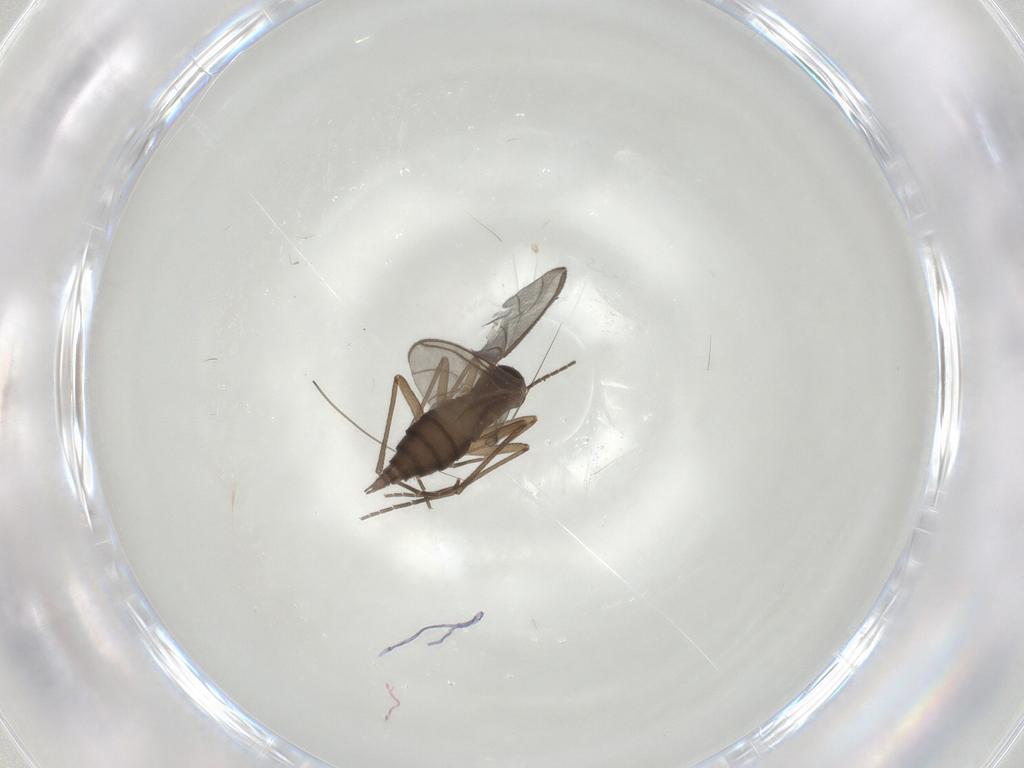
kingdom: Animalia
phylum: Arthropoda
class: Insecta
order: Diptera
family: Sciaridae
